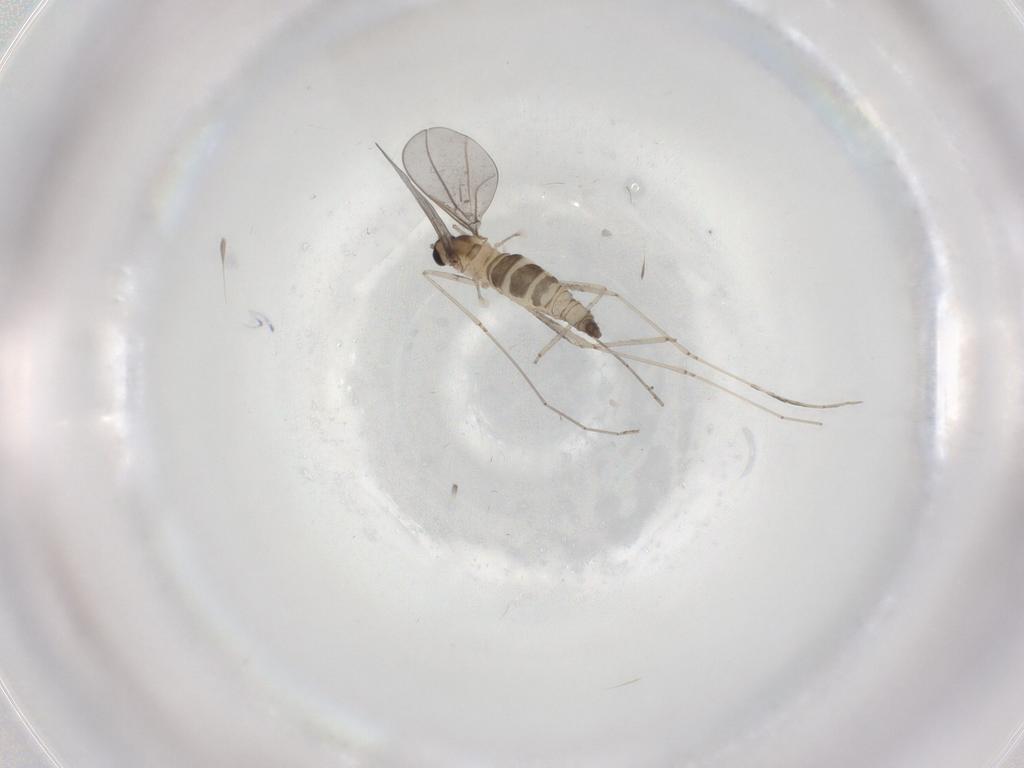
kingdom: Animalia
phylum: Arthropoda
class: Insecta
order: Diptera
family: Cecidomyiidae
